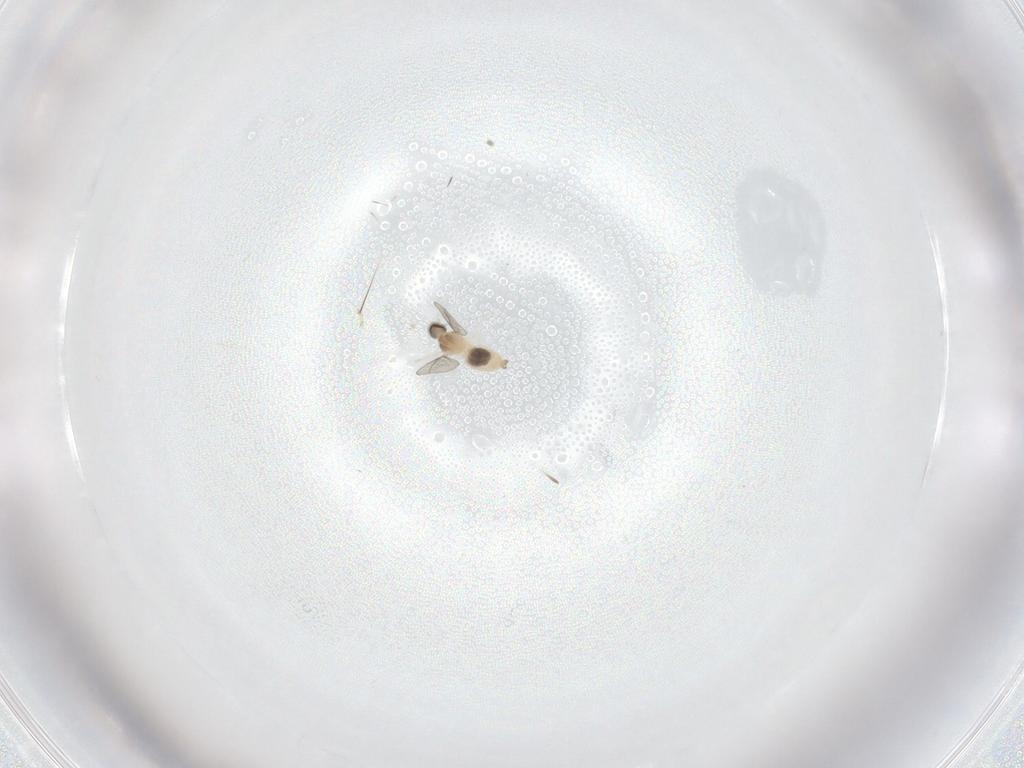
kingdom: Animalia
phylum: Arthropoda
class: Insecta
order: Diptera
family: Cecidomyiidae
